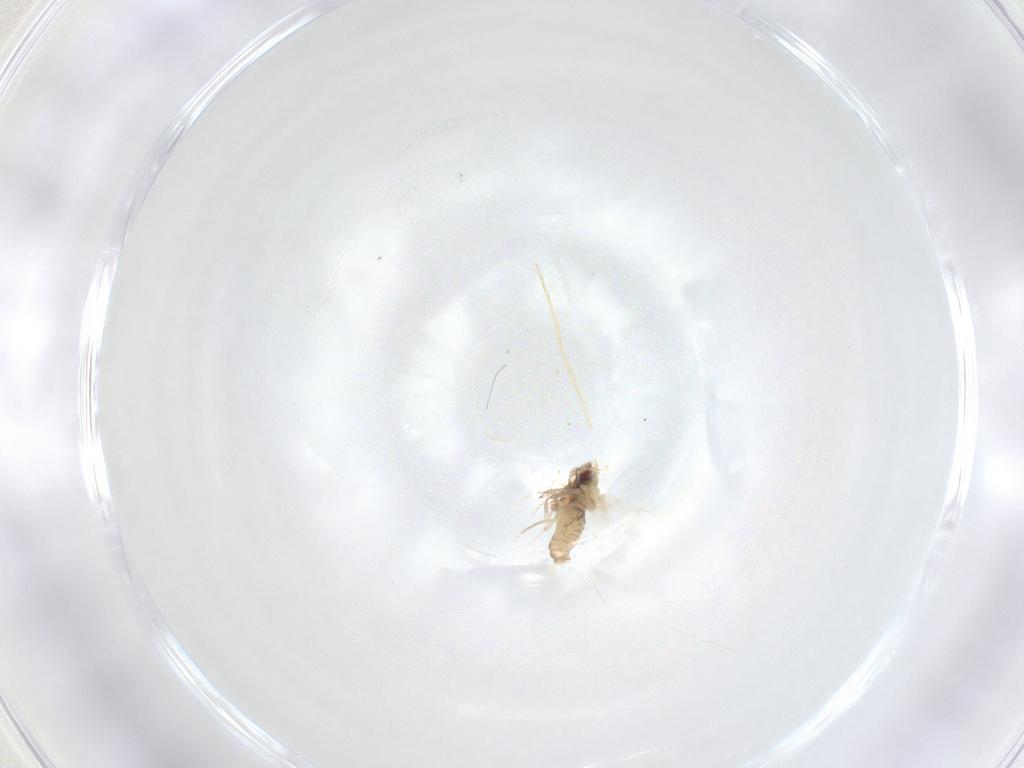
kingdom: Animalia
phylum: Arthropoda
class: Insecta
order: Hemiptera
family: Aleyrodidae
